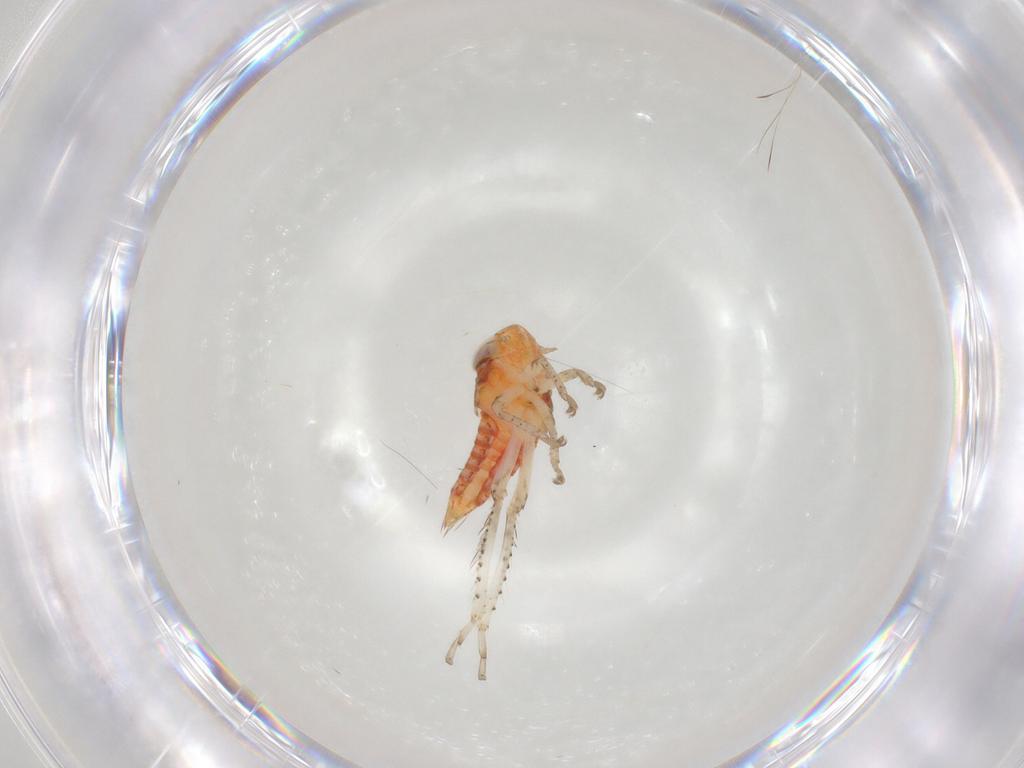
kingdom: Animalia
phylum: Arthropoda
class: Insecta
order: Hemiptera
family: Cicadellidae
